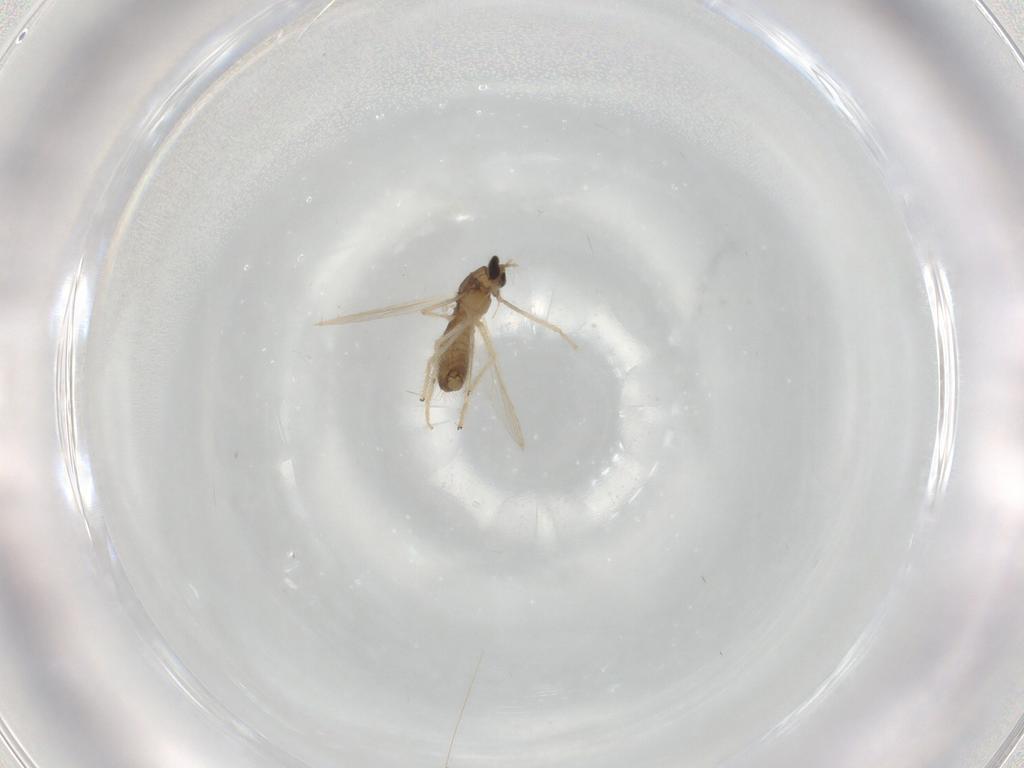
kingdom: Animalia
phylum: Arthropoda
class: Insecta
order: Diptera
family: Chironomidae
